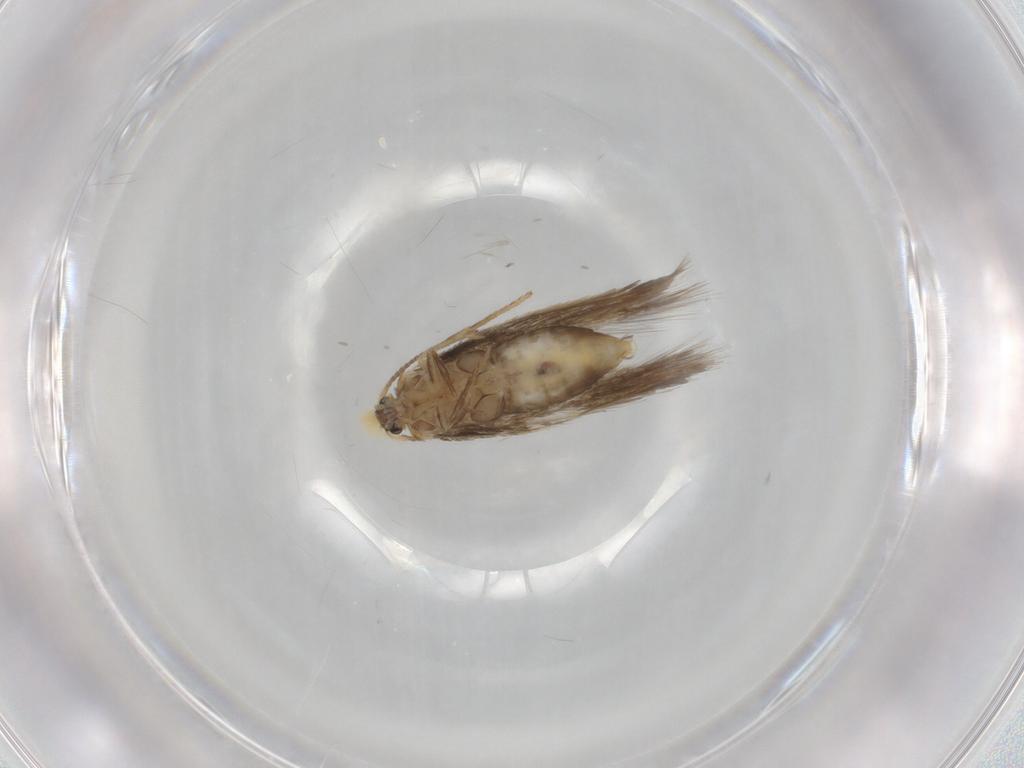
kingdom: Animalia
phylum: Arthropoda
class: Insecta
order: Lepidoptera
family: Nepticulidae
